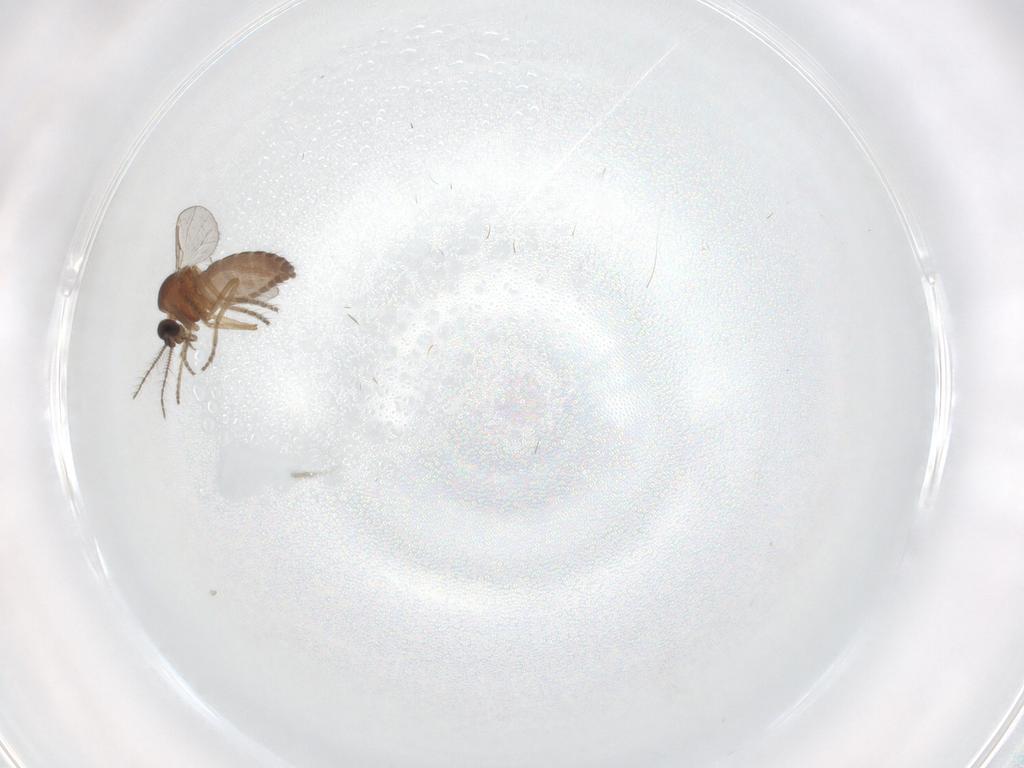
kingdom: Animalia
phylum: Arthropoda
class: Insecta
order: Diptera
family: Ceratopogonidae
